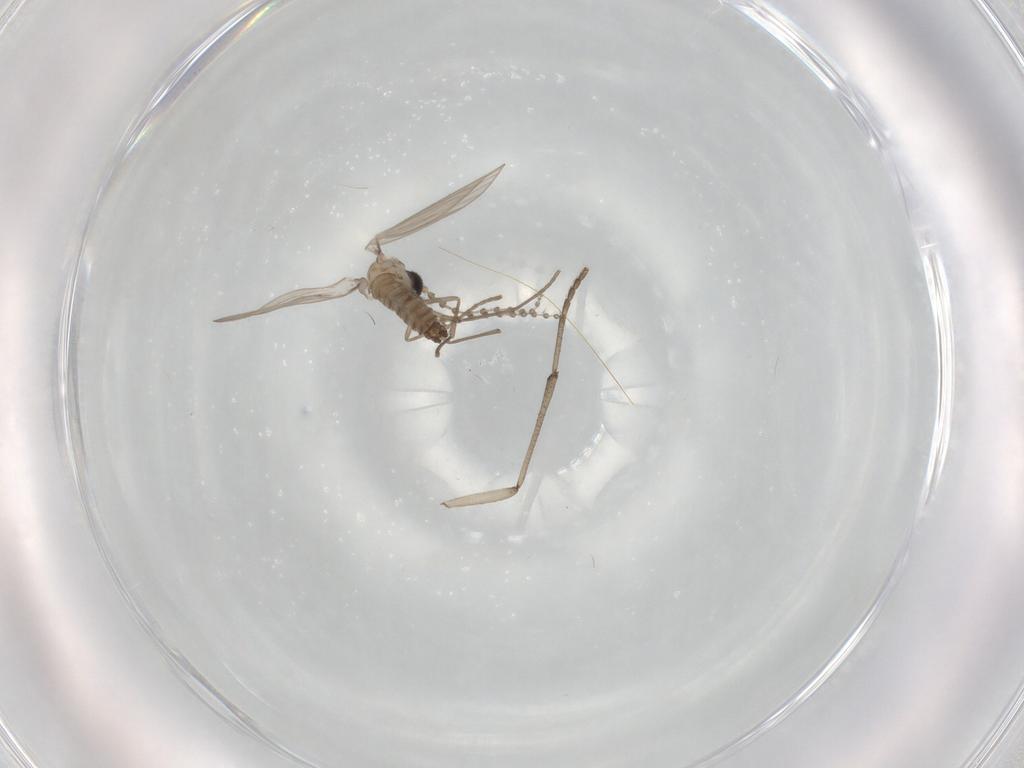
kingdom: Animalia
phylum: Arthropoda
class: Insecta
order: Diptera
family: Psychodidae
